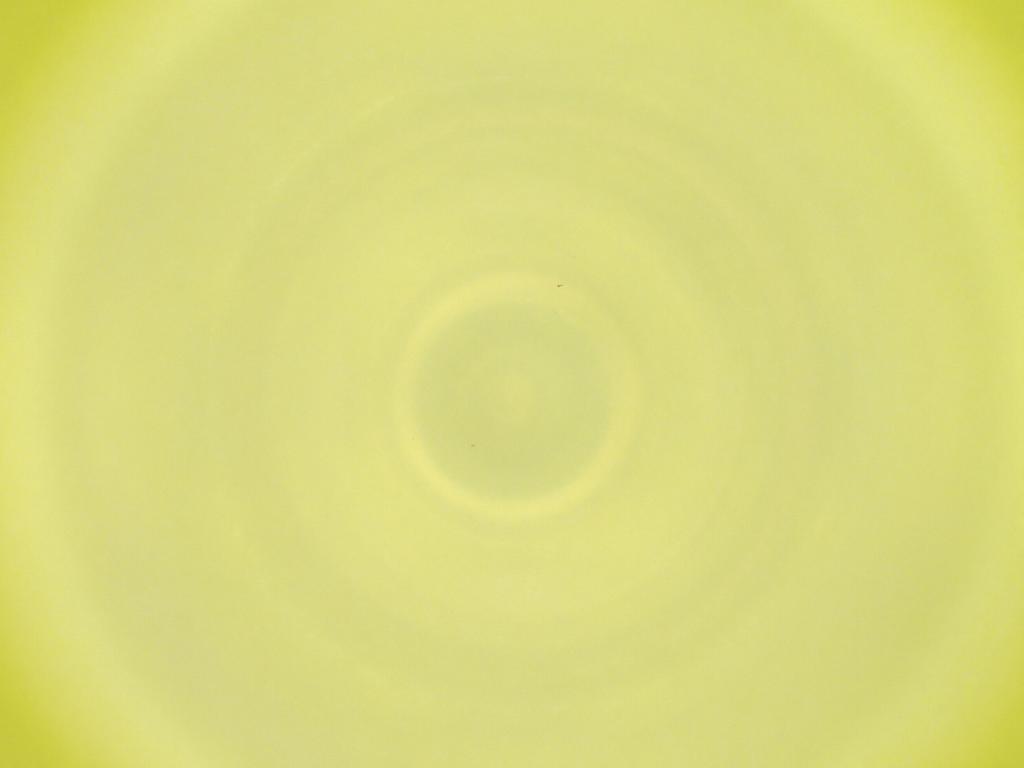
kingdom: Animalia
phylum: Arthropoda
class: Insecta
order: Diptera
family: Cecidomyiidae
